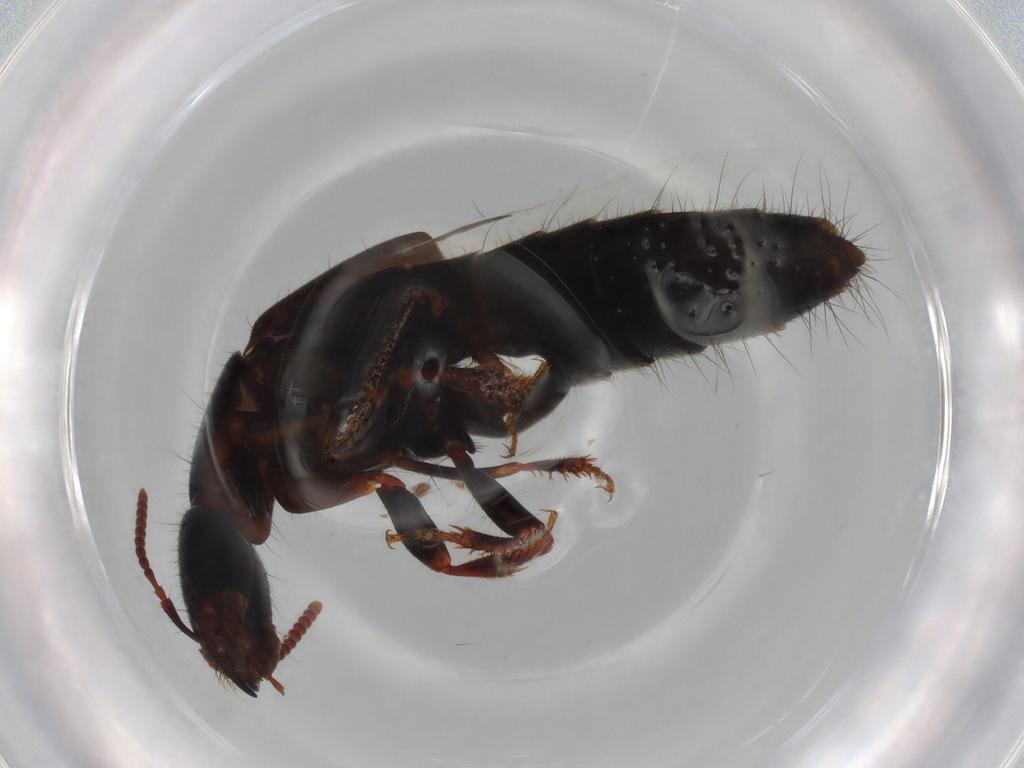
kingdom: Animalia
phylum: Arthropoda
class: Insecta
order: Coleoptera
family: Staphylinidae
